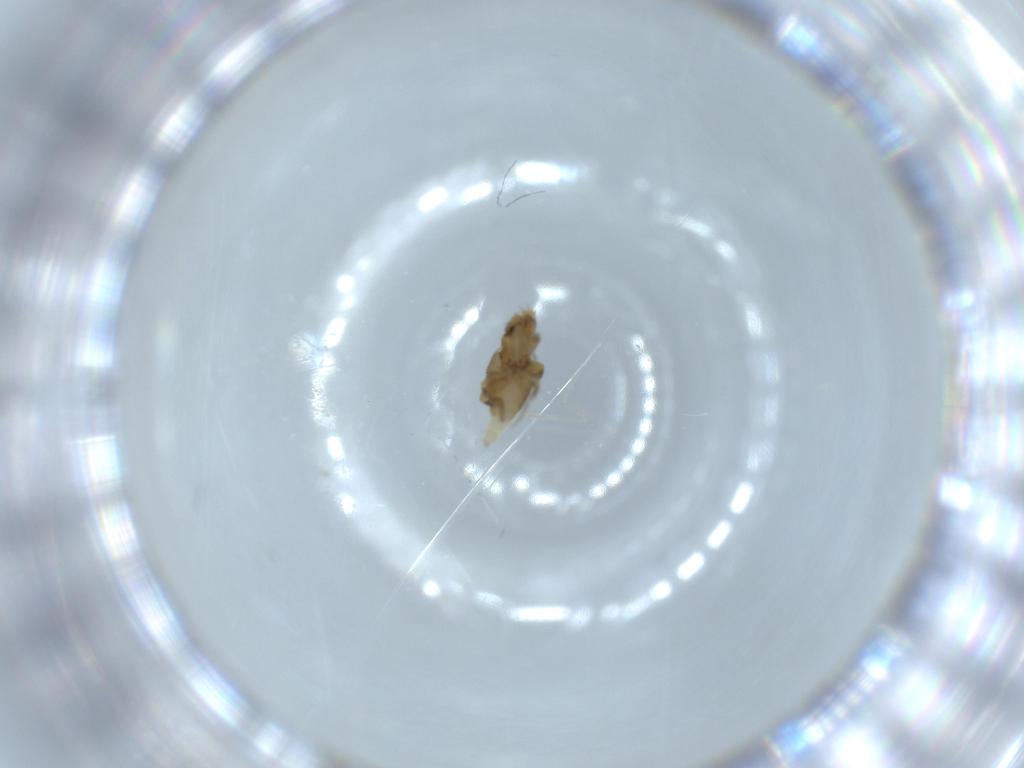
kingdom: Animalia
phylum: Arthropoda
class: Insecta
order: Diptera
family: Phoridae
